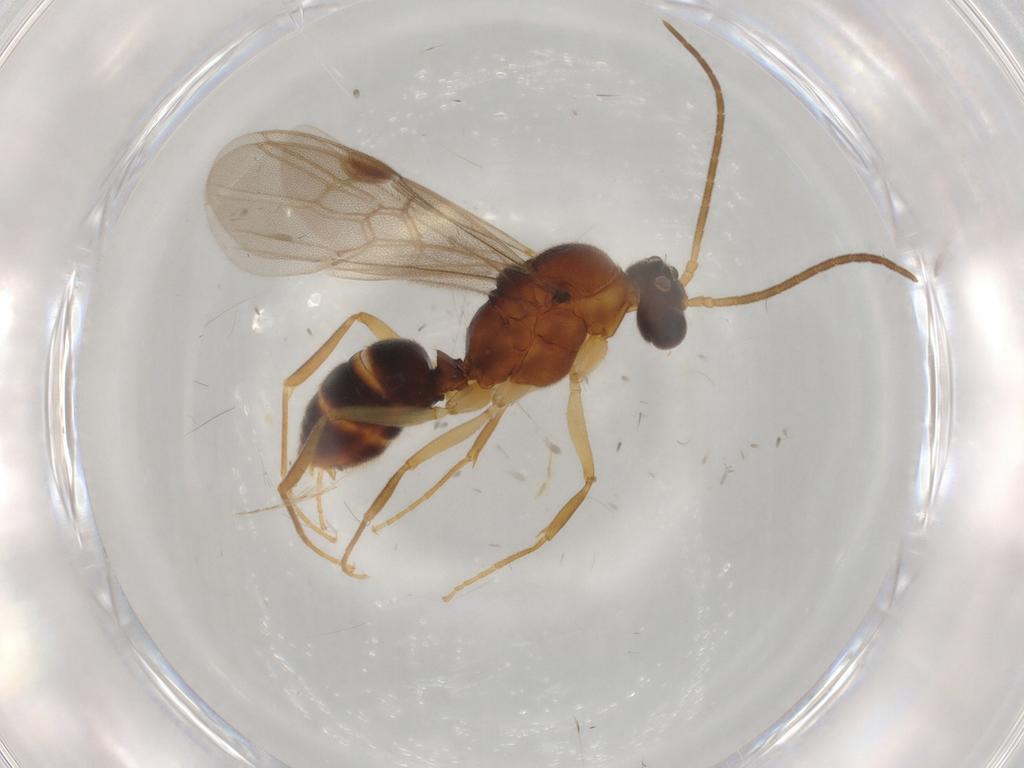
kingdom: Animalia
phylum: Arthropoda
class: Insecta
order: Hymenoptera
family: Formicidae
